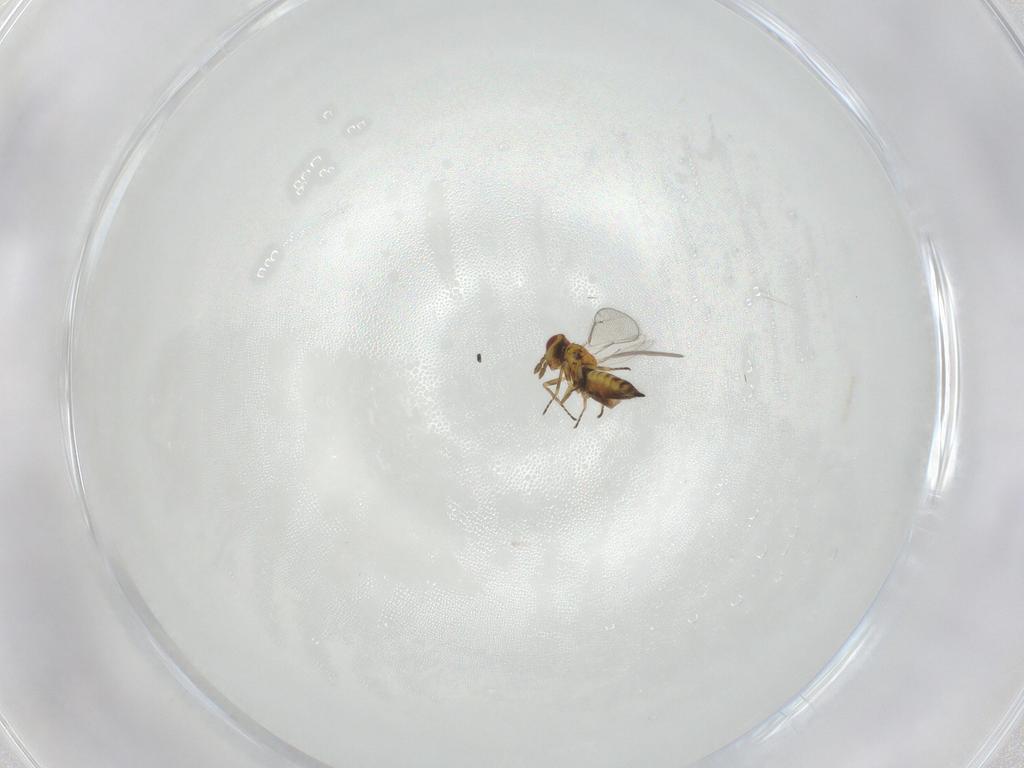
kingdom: Animalia
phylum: Arthropoda
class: Insecta
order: Hymenoptera
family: Eulophidae
